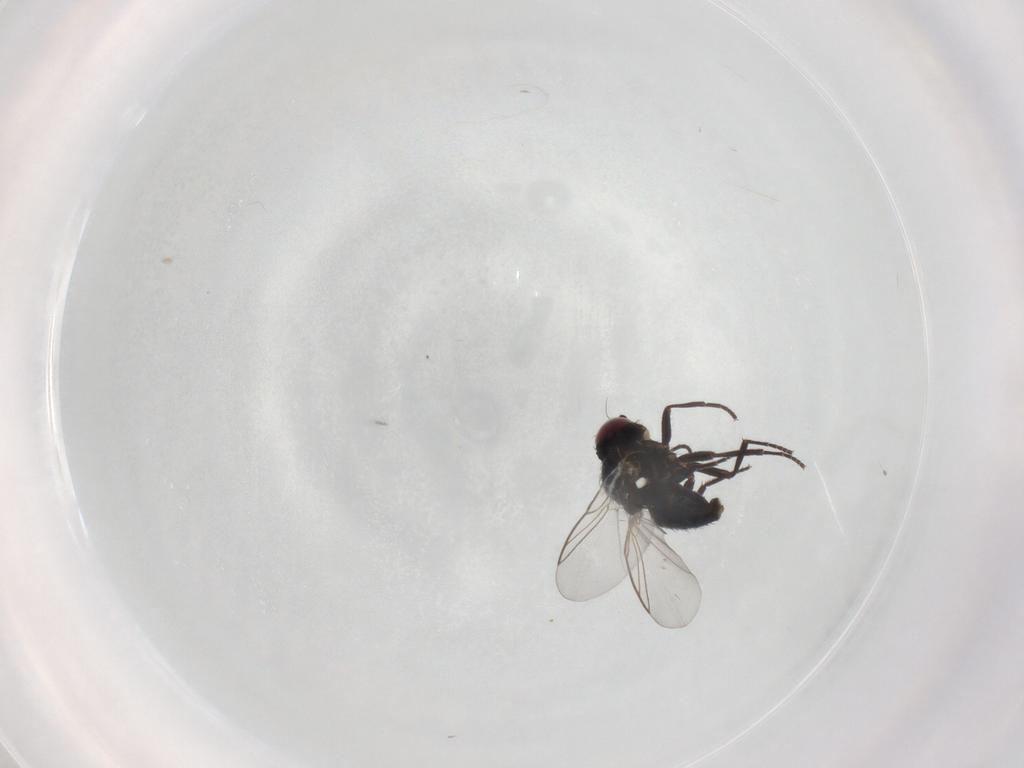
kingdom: Animalia
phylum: Arthropoda
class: Insecta
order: Diptera
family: Agromyzidae
